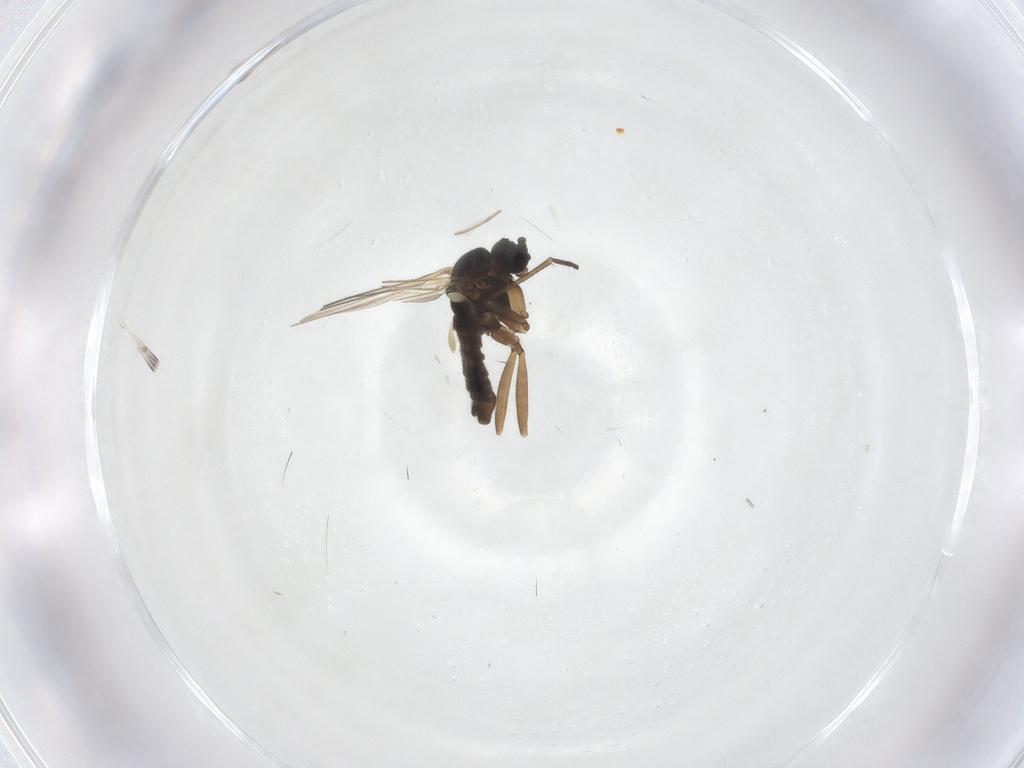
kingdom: Animalia
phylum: Arthropoda
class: Insecta
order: Diptera
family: Sciaridae
